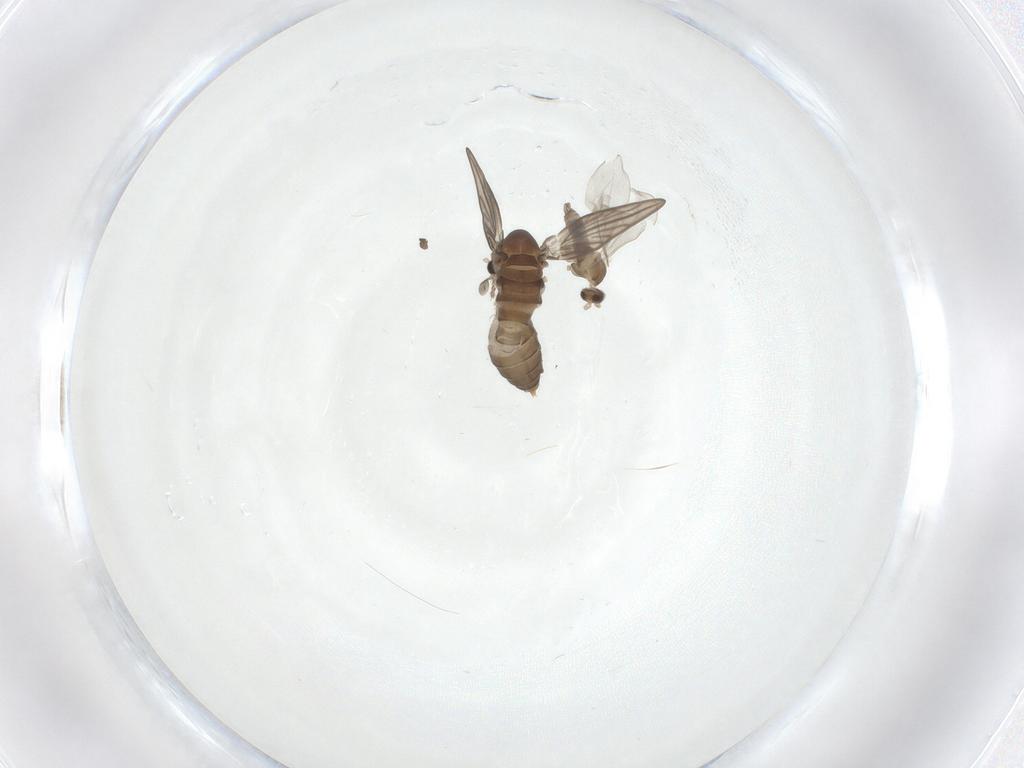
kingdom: Animalia
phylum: Arthropoda
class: Insecta
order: Diptera
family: Psychodidae
